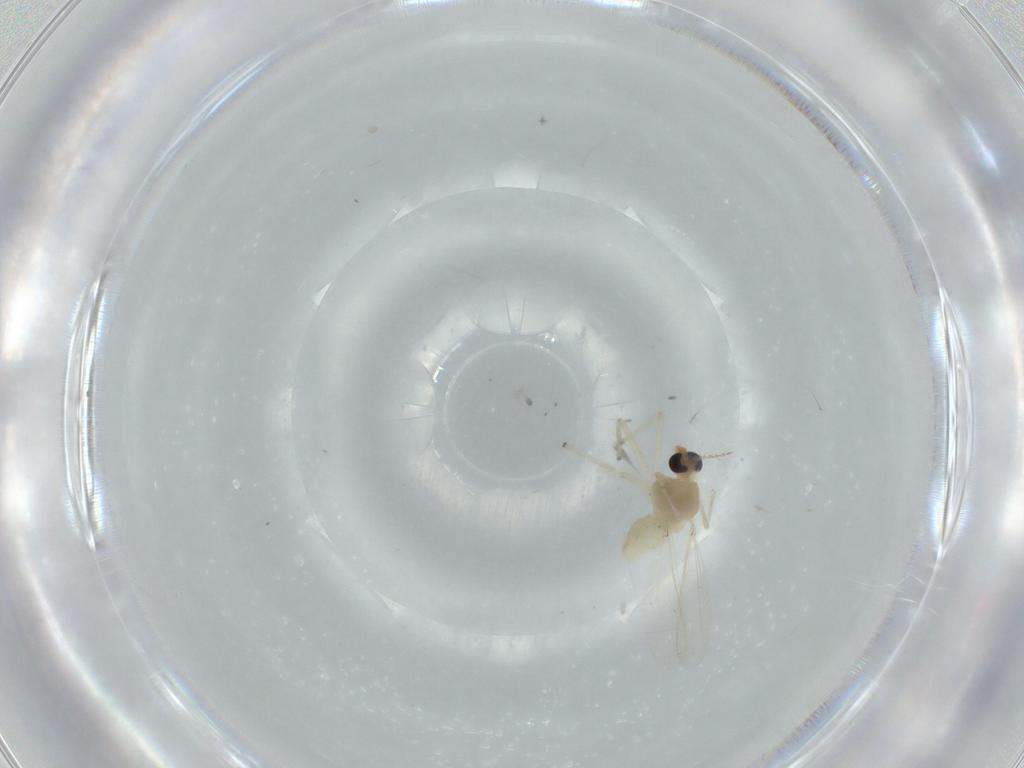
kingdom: Animalia
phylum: Arthropoda
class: Insecta
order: Diptera
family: Chironomidae
